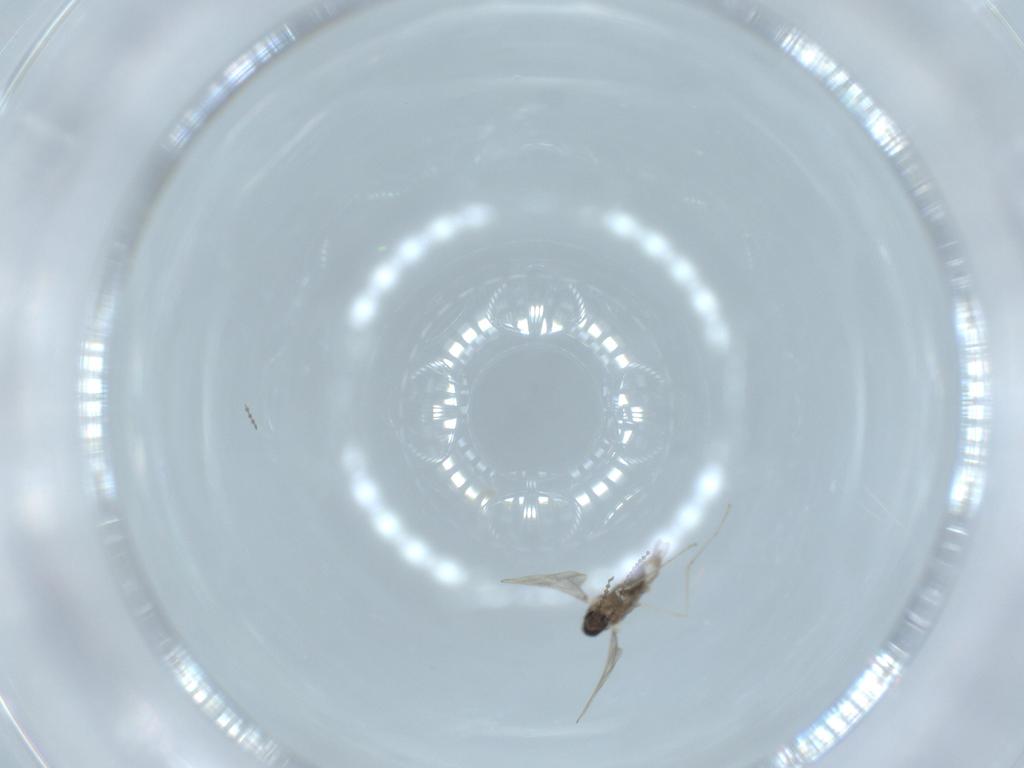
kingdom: Animalia
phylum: Arthropoda
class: Insecta
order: Diptera
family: Cecidomyiidae
